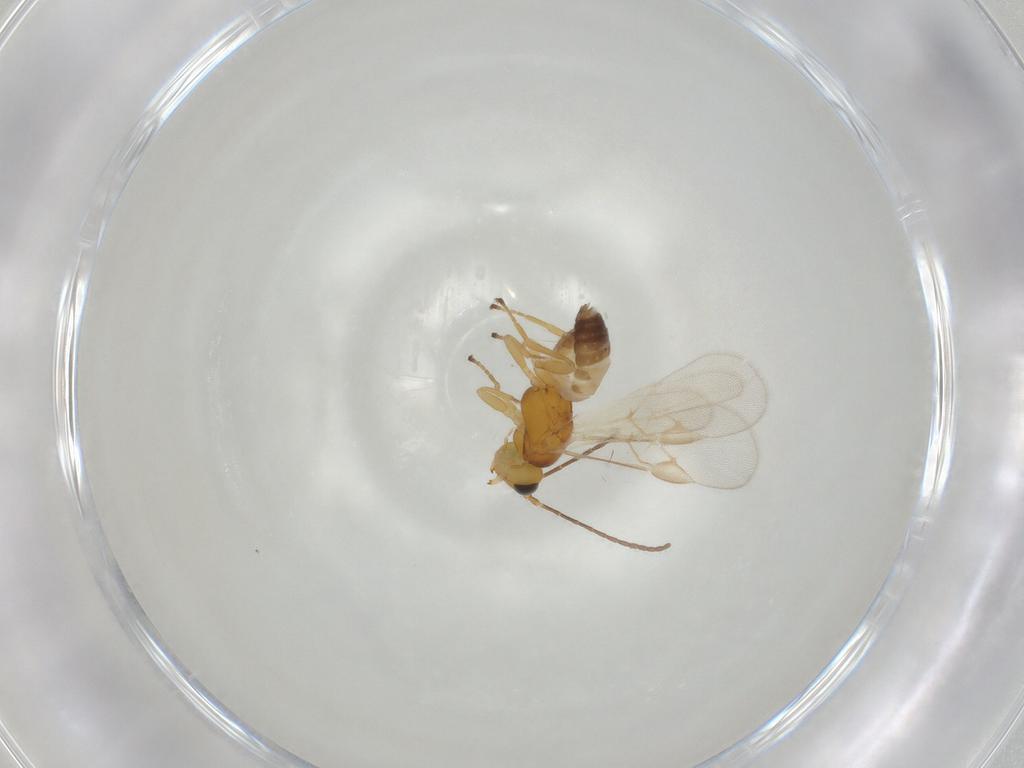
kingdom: Animalia
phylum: Arthropoda
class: Insecta
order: Hymenoptera
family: Braconidae
